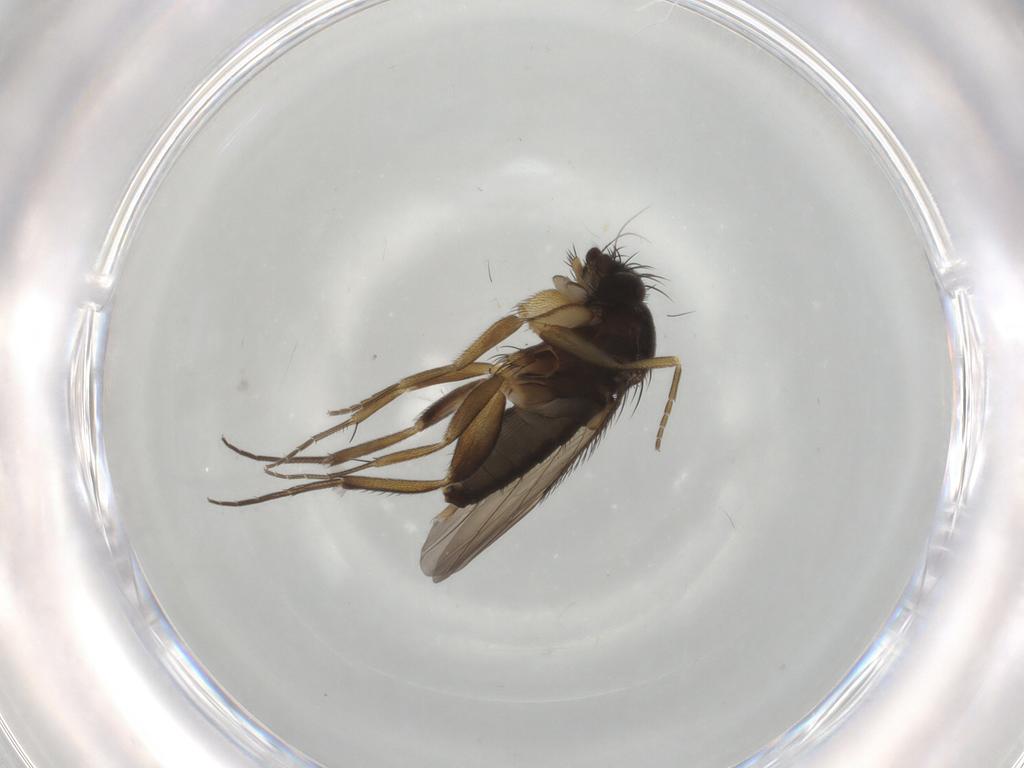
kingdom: Animalia
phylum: Arthropoda
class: Insecta
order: Diptera
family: Phoridae
